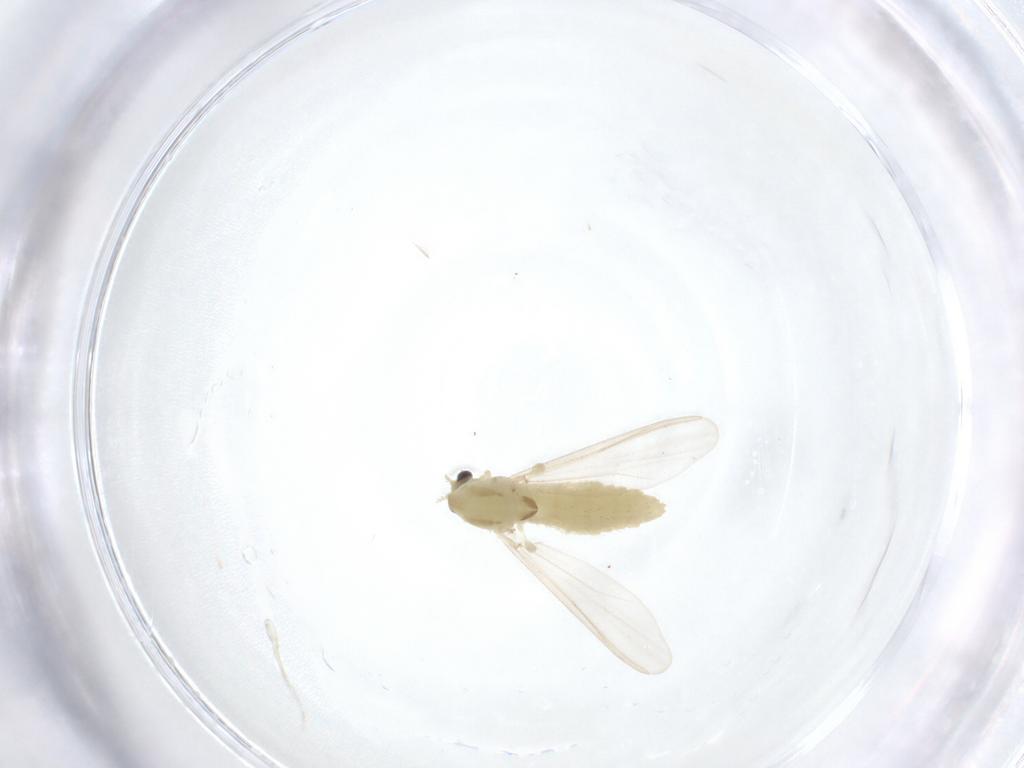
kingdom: Animalia
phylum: Arthropoda
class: Insecta
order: Diptera
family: Chironomidae
